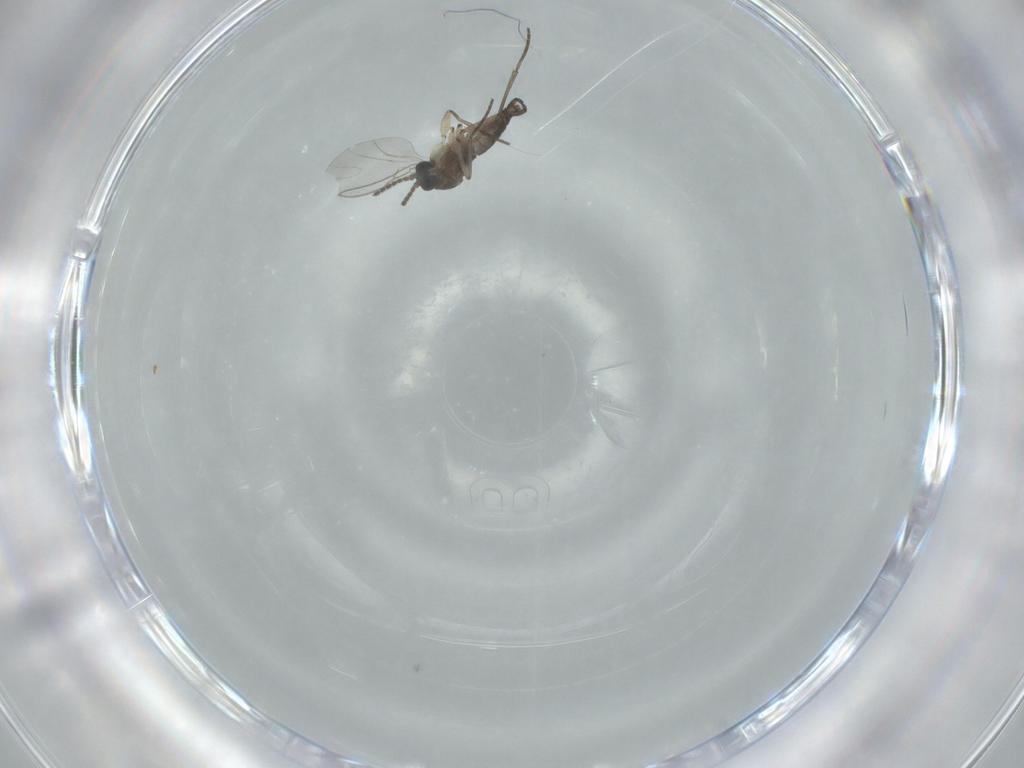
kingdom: Animalia
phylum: Arthropoda
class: Insecta
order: Diptera
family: Sciaridae
